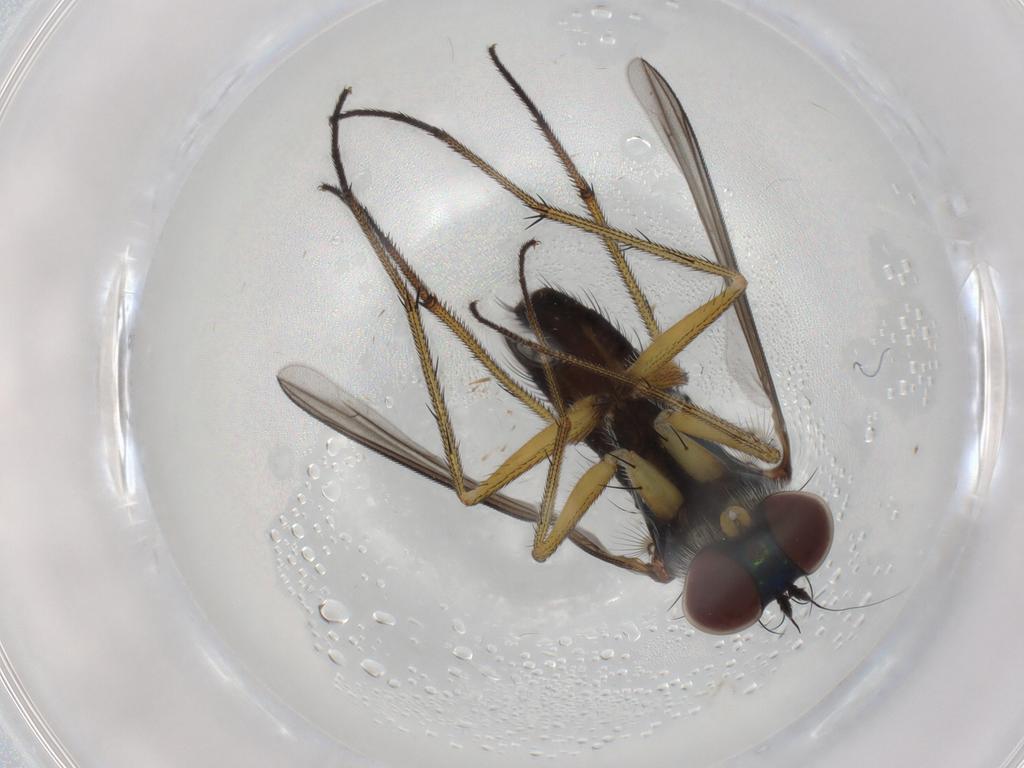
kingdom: Animalia
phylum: Arthropoda
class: Insecta
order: Diptera
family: Dolichopodidae
